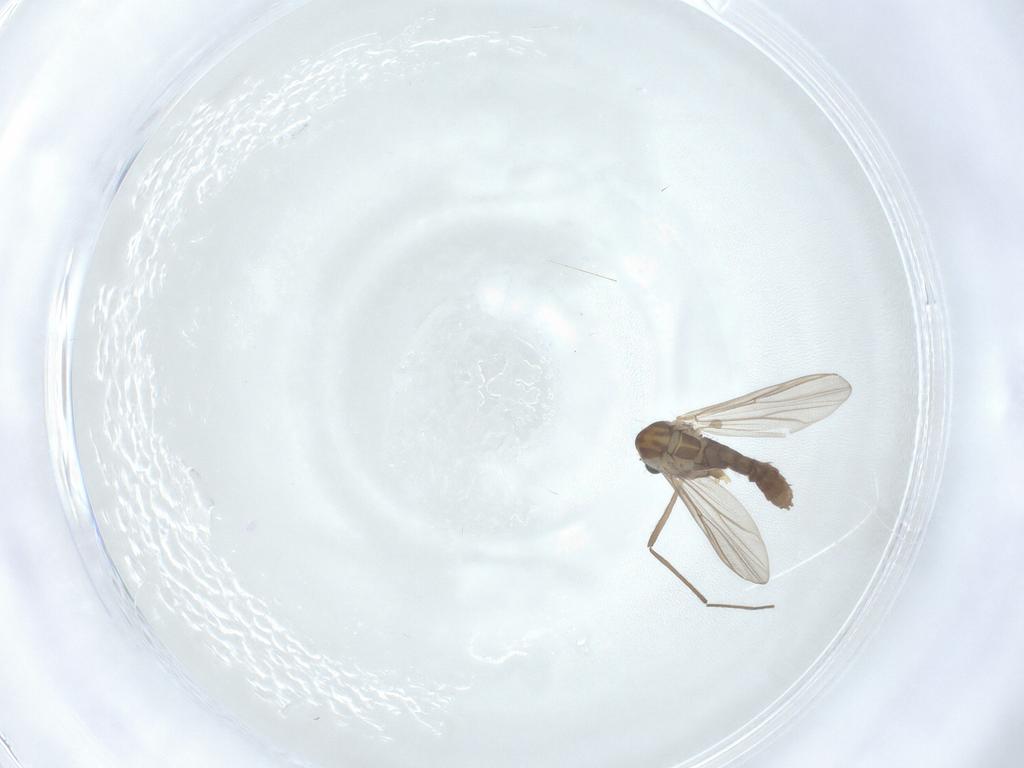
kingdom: Animalia
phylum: Arthropoda
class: Insecta
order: Diptera
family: Chironomidae
